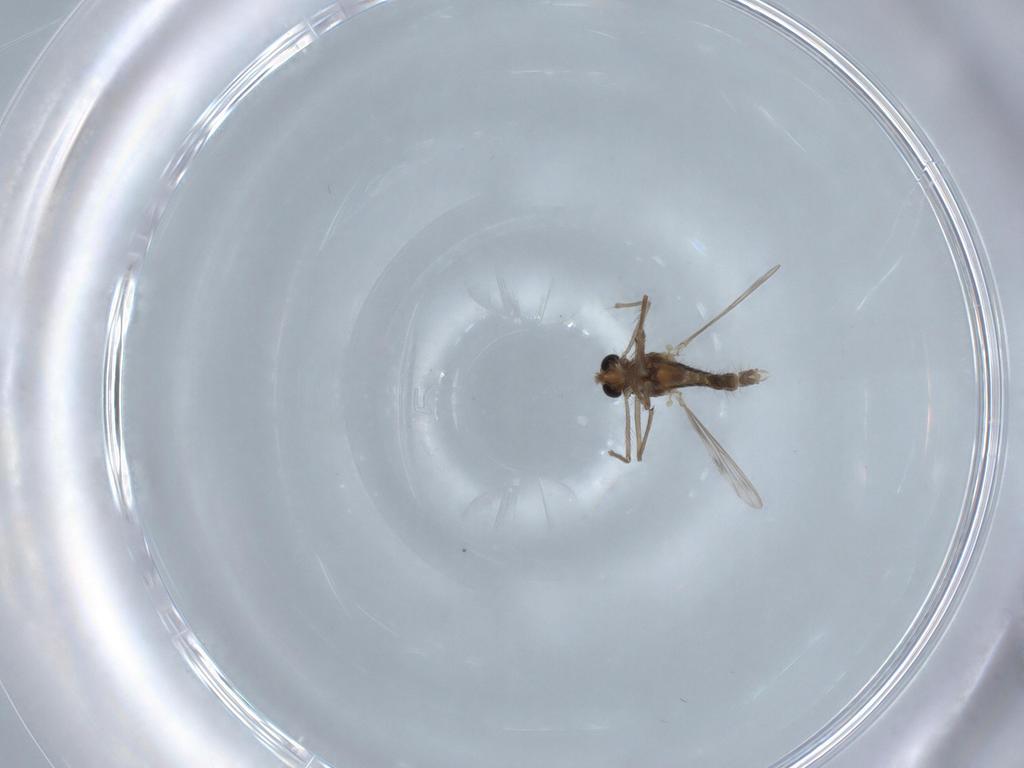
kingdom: Animalia
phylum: Arthropoda
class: Insecta
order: Diptera
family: Chironomidae
